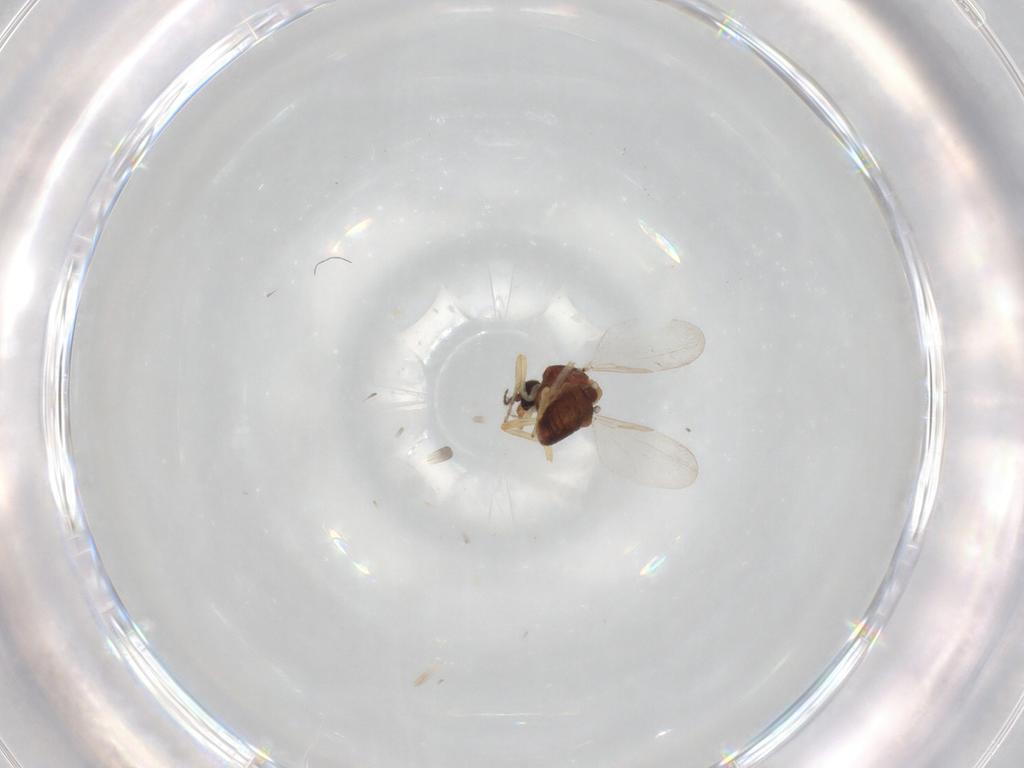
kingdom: Animalia
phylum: Arthropoda
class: Insecta
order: Diptera
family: Ceratopogonidae
